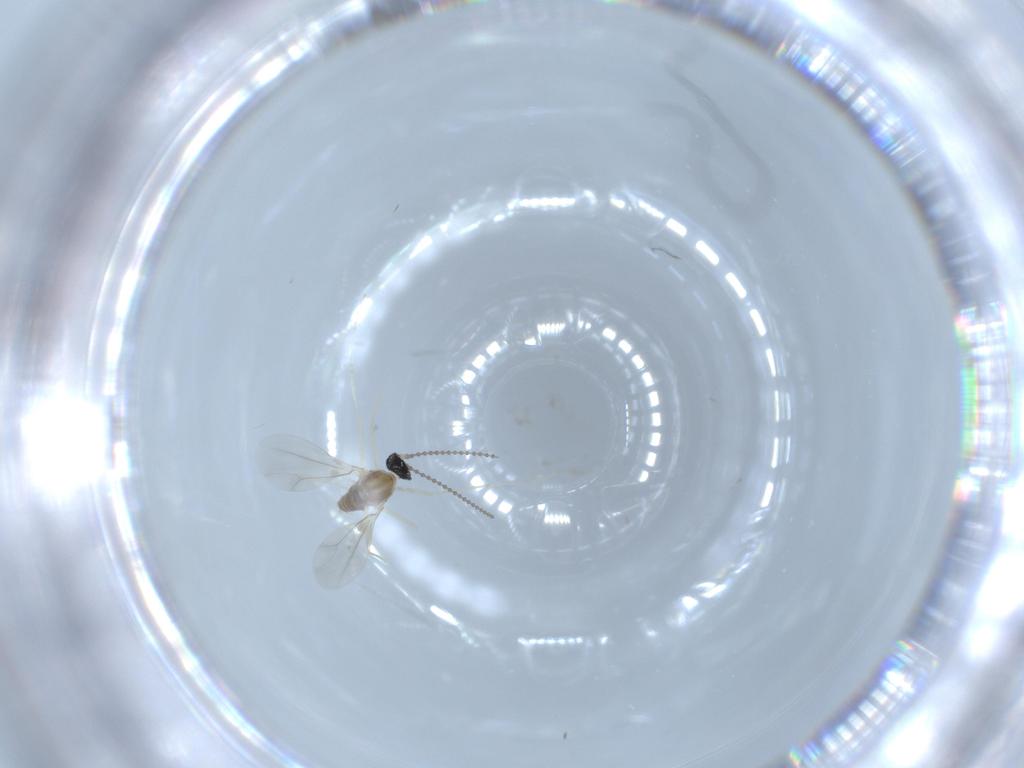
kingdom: Animalia
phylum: Arthropoda
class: Insecta
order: Diptera
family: Cecidomyiidae
